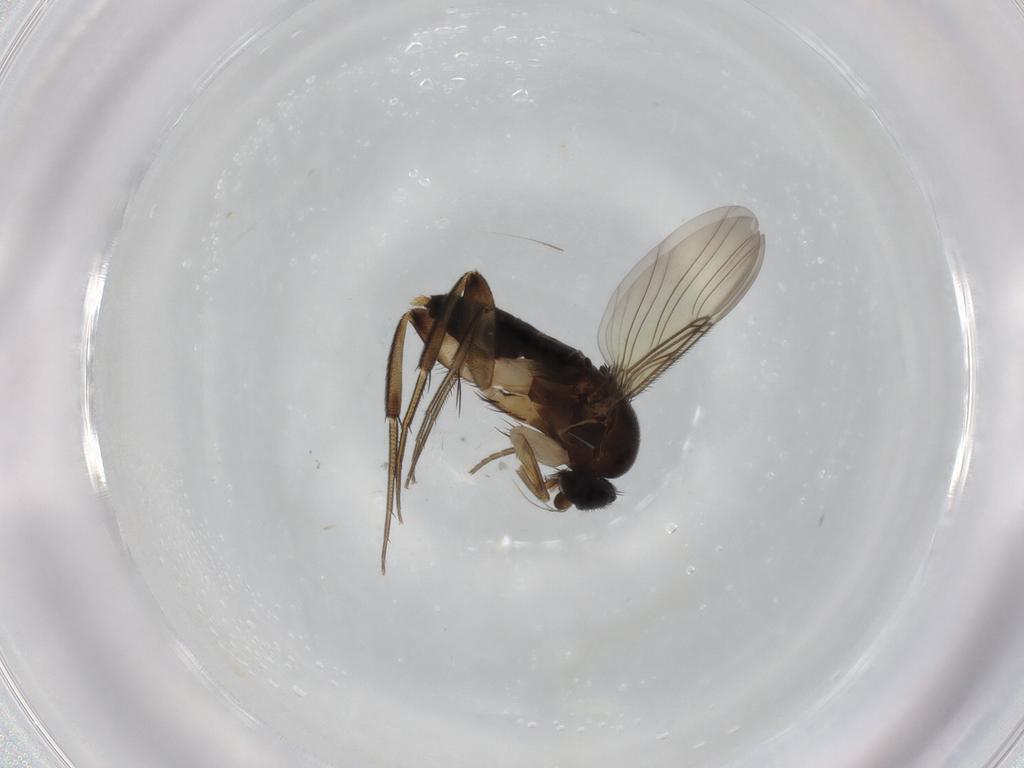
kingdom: Animalia
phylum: Arthropoda
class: Insecta
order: Diptera
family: Phoridae
